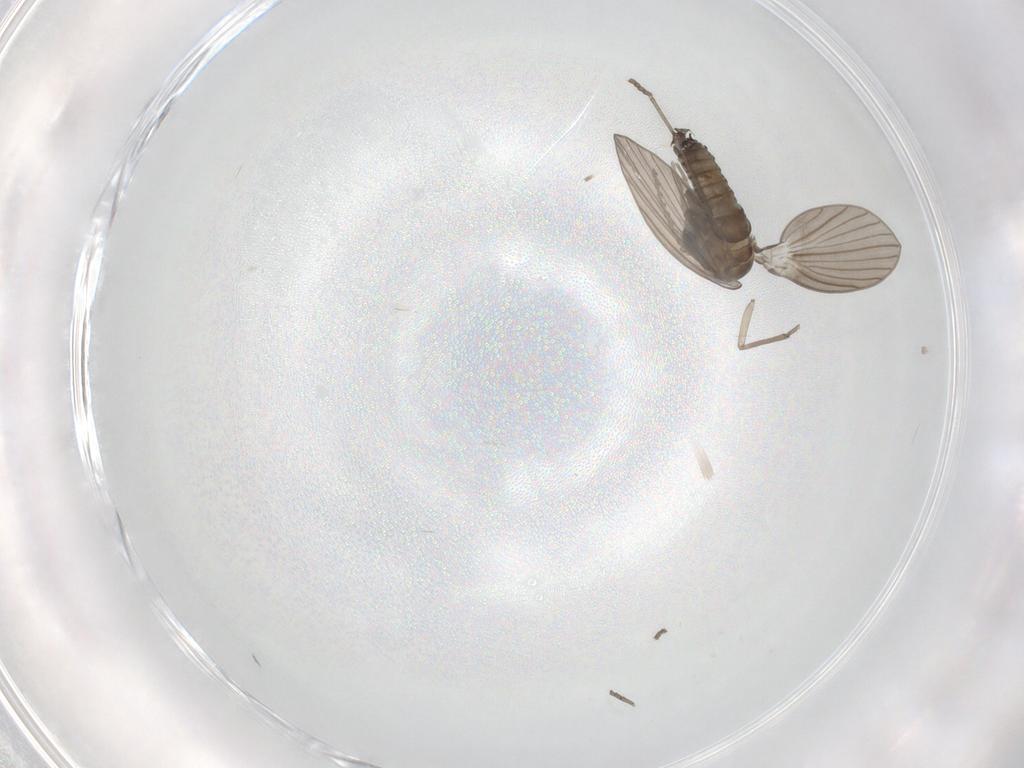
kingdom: Animalia
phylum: Arthropoda
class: Insecta
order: Diptera
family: Psychodidae
